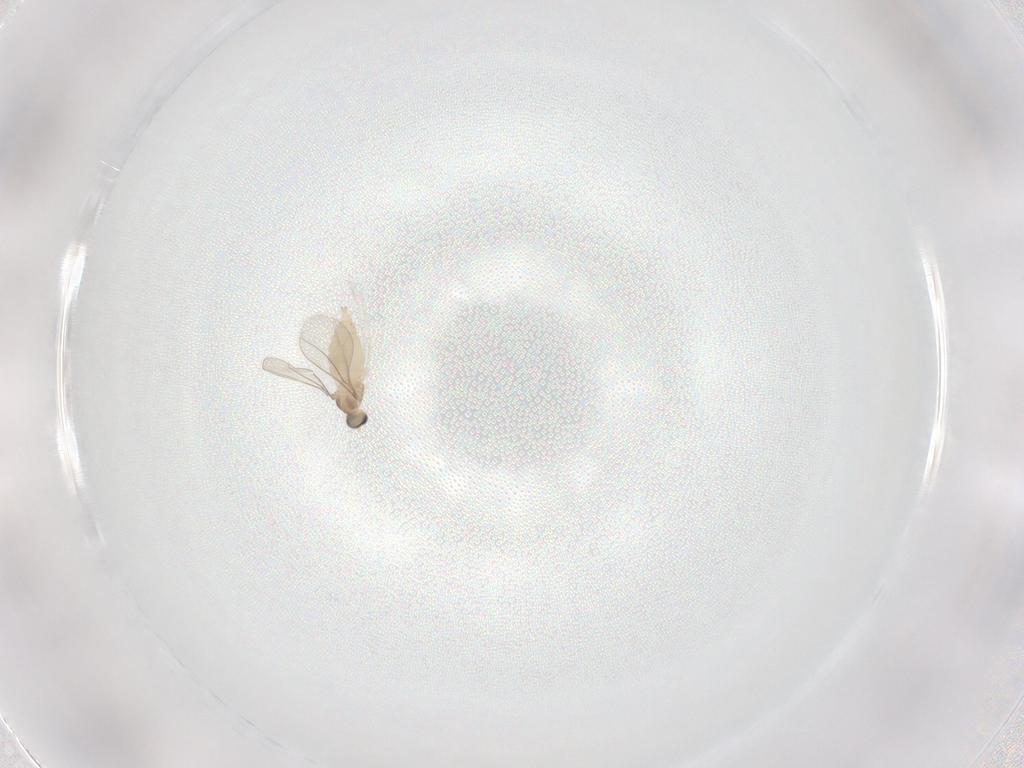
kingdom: Animalia
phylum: Arthropoda
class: Insecta
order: Diptera
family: Cecidomyiidae
